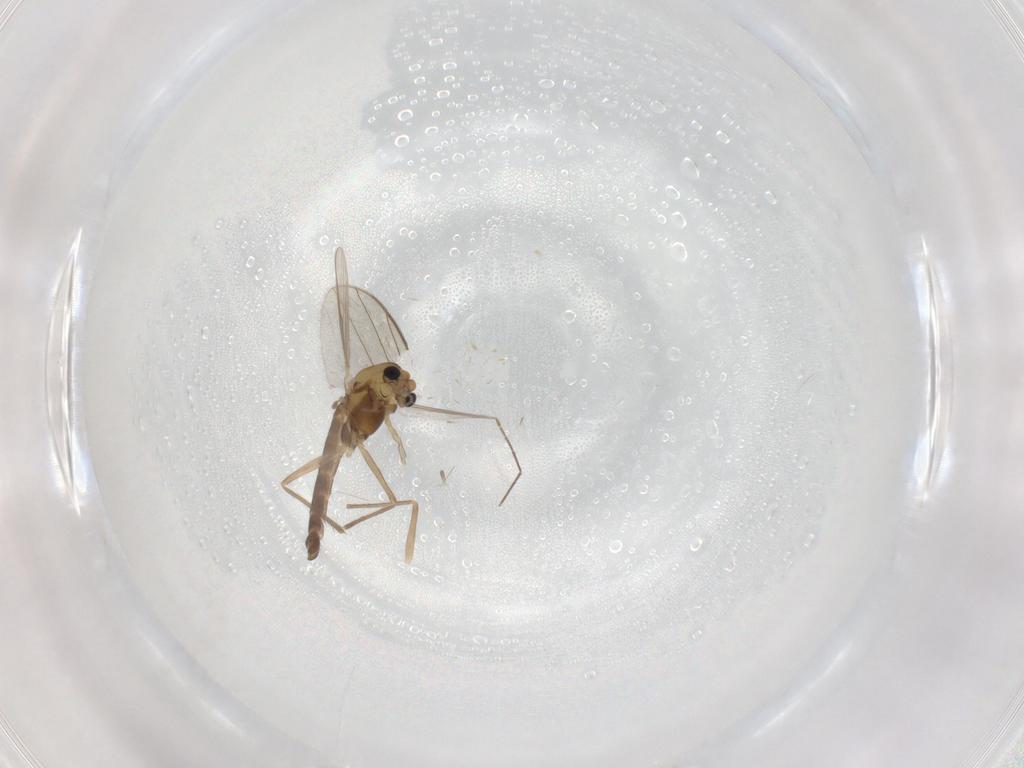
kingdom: Animalia
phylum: Arthropoda
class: Insecta
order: Diptera
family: Chironomidae
